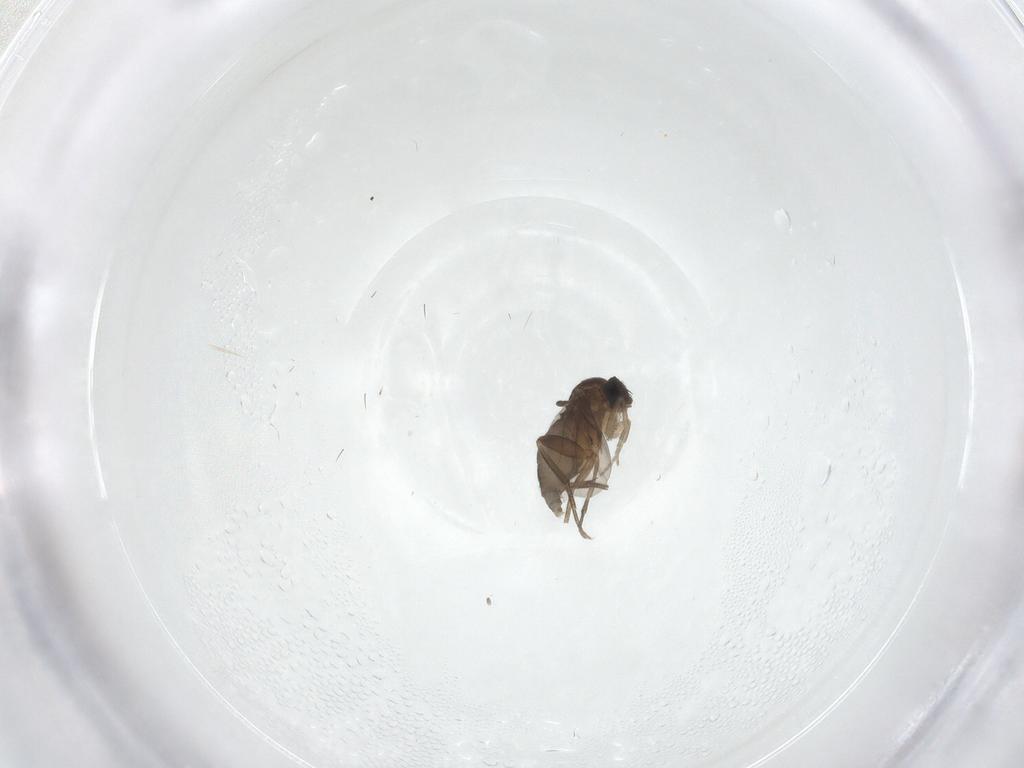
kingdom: Animalia
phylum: Arthropoda
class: Insecta
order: Diptera
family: Phoridae
